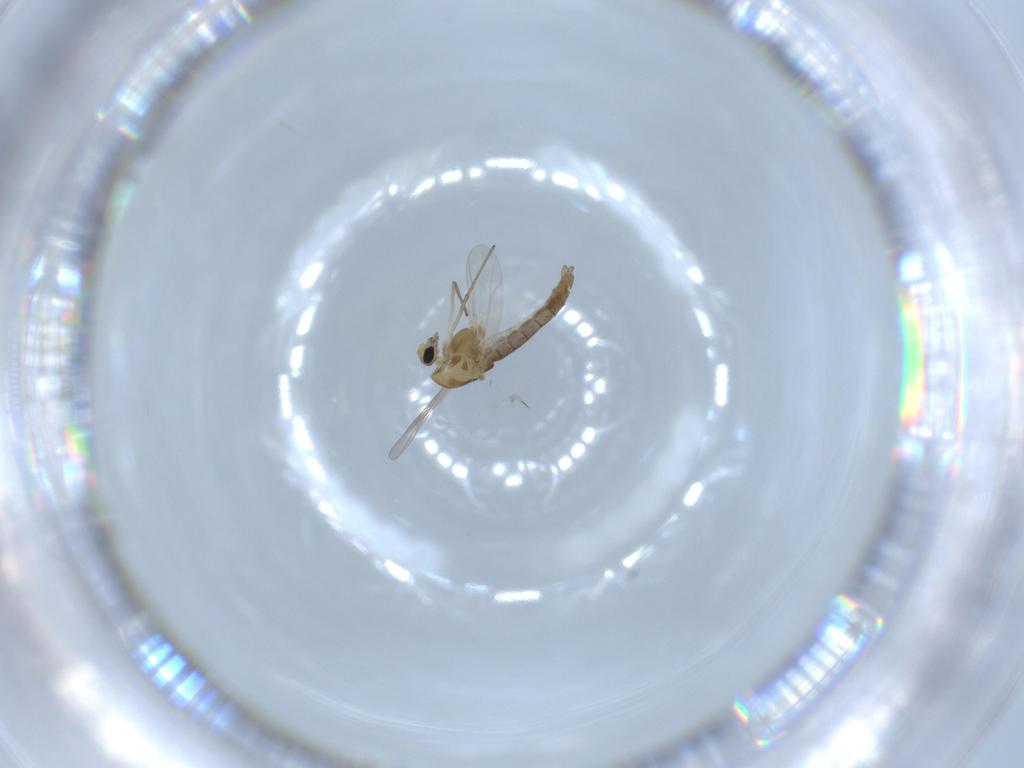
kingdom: Animalia
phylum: Arthropoda
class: Insecta
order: Diptera
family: Chironomidae
